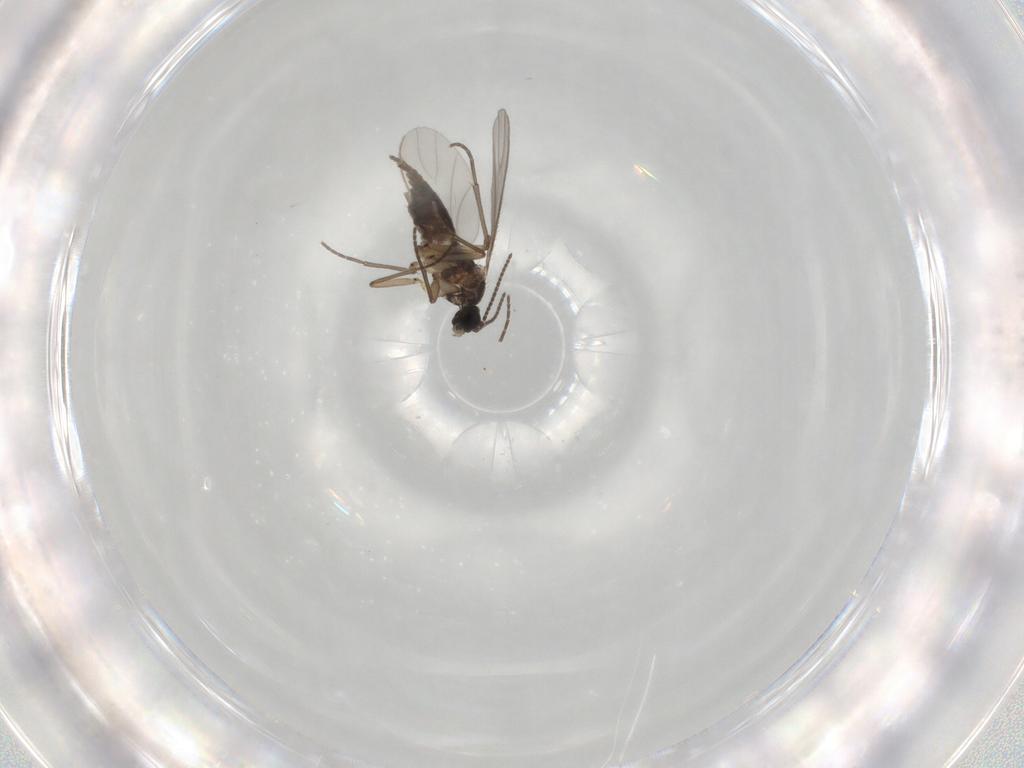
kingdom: Animalia
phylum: Arthropoda
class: Insecta
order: Diptera
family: Sciaridae
